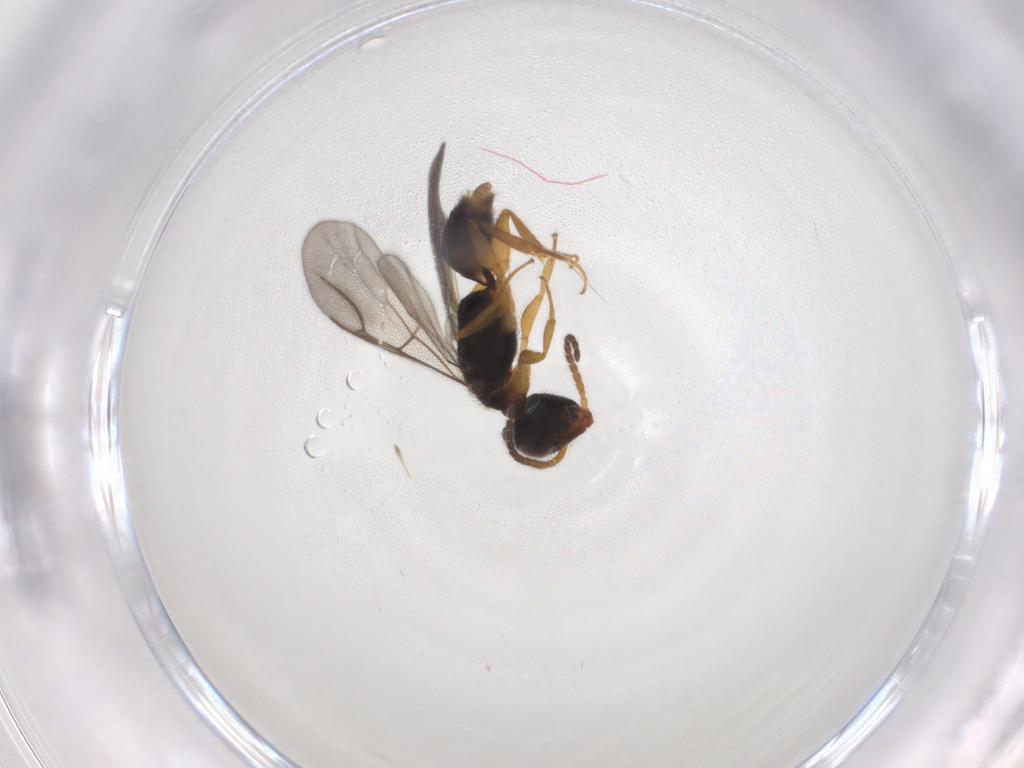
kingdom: Animalia
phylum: Arthropoda
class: Insecta
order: Hymenoptera
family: Bethylidae
